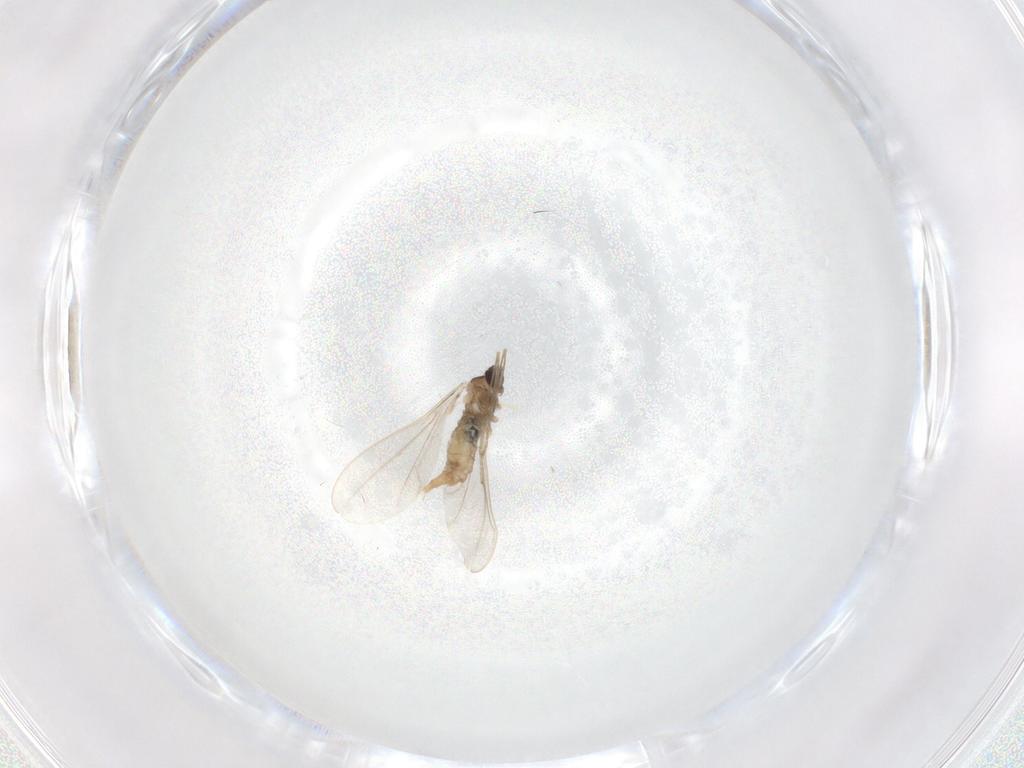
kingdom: Animalia
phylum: Arthropoda
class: Insecta
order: Diptera
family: Cecidomyiidae
